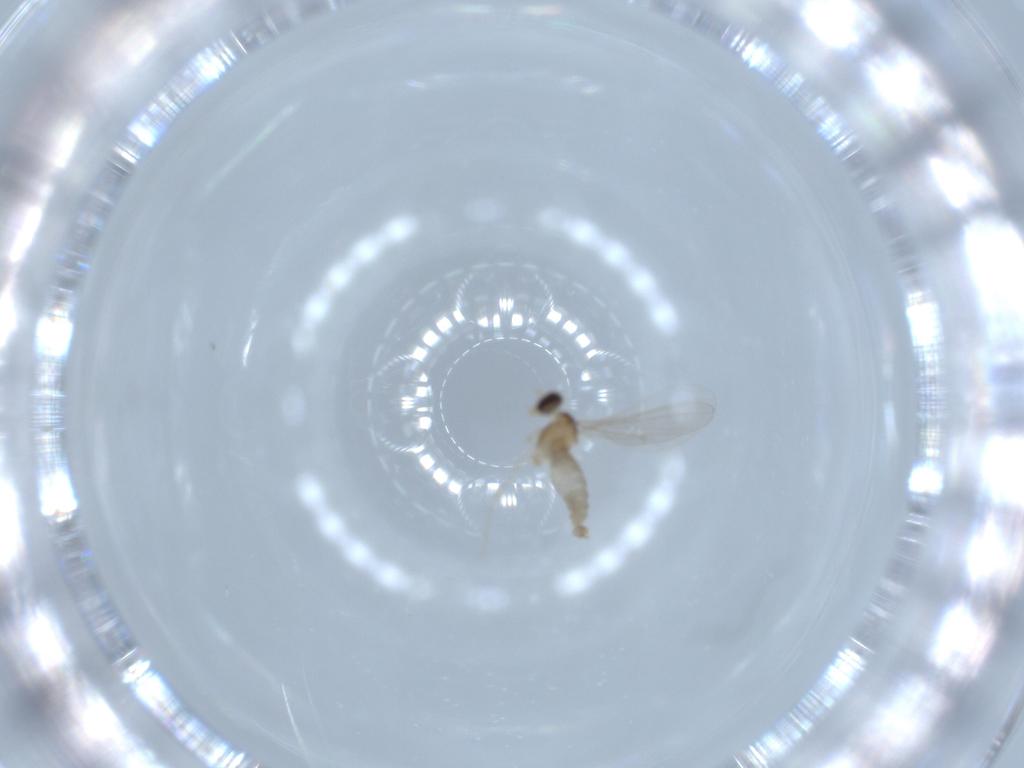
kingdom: Animalia
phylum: Arthropoda
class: Insecta
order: Diptera
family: Cecidomyiidae
